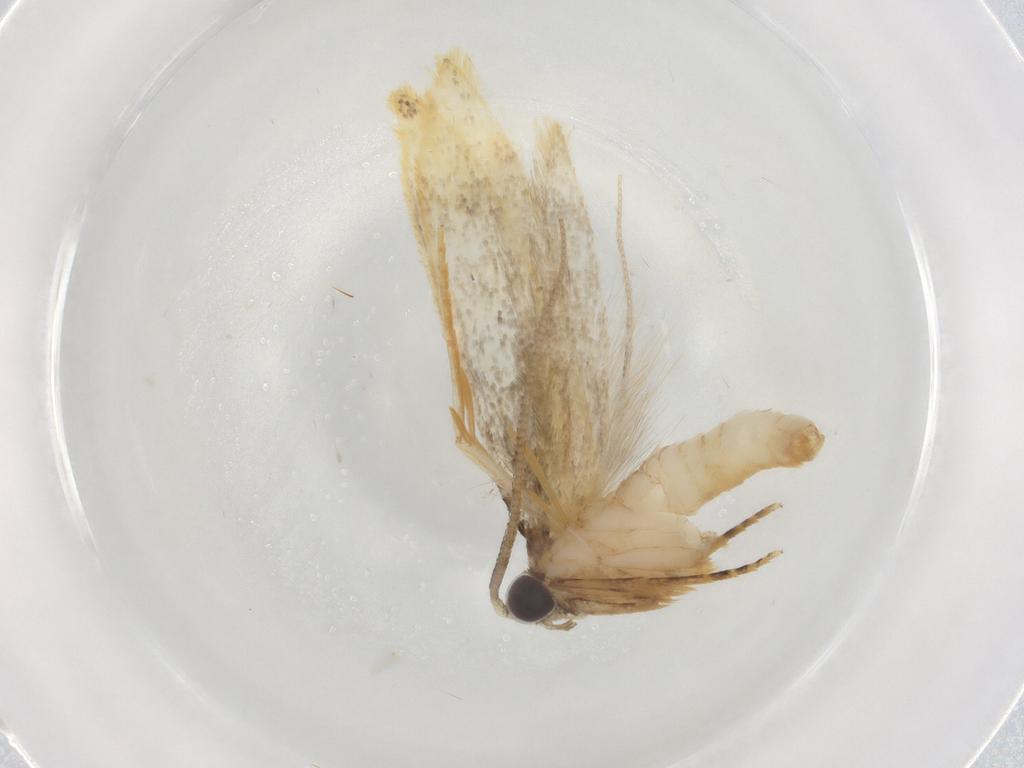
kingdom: Animalia
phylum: Arthropoda
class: Insecta
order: Lepidoptera
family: Tineidae
